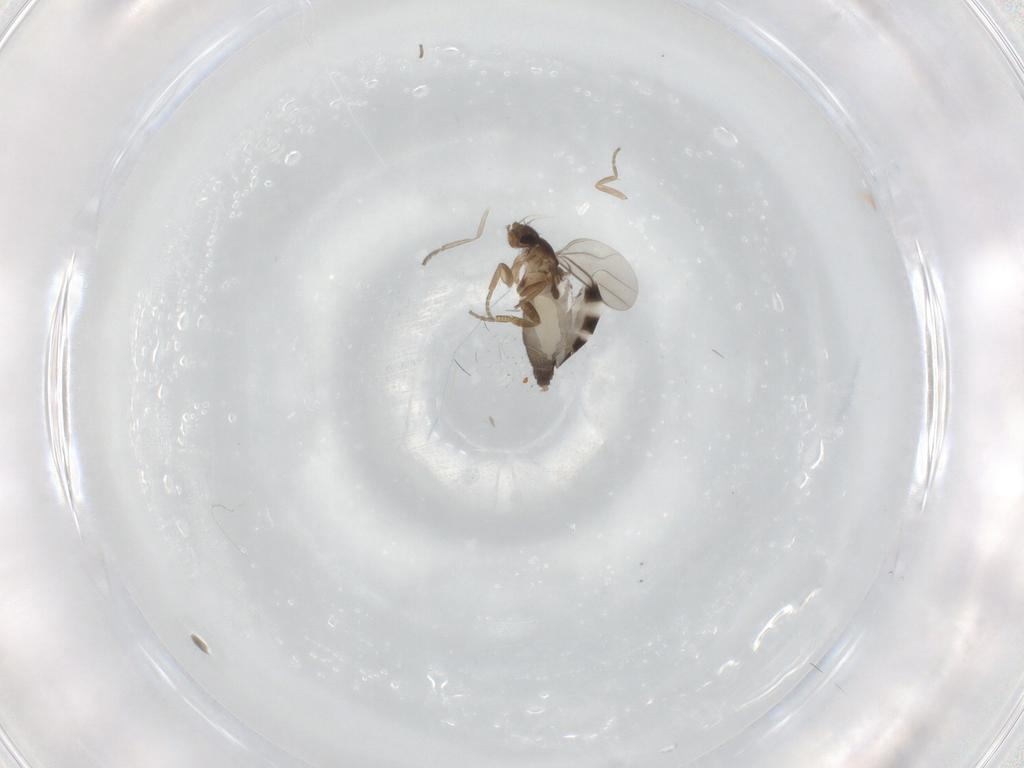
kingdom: Animalia
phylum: Arthropoda
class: Insecta
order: Diptera
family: Phoridae
